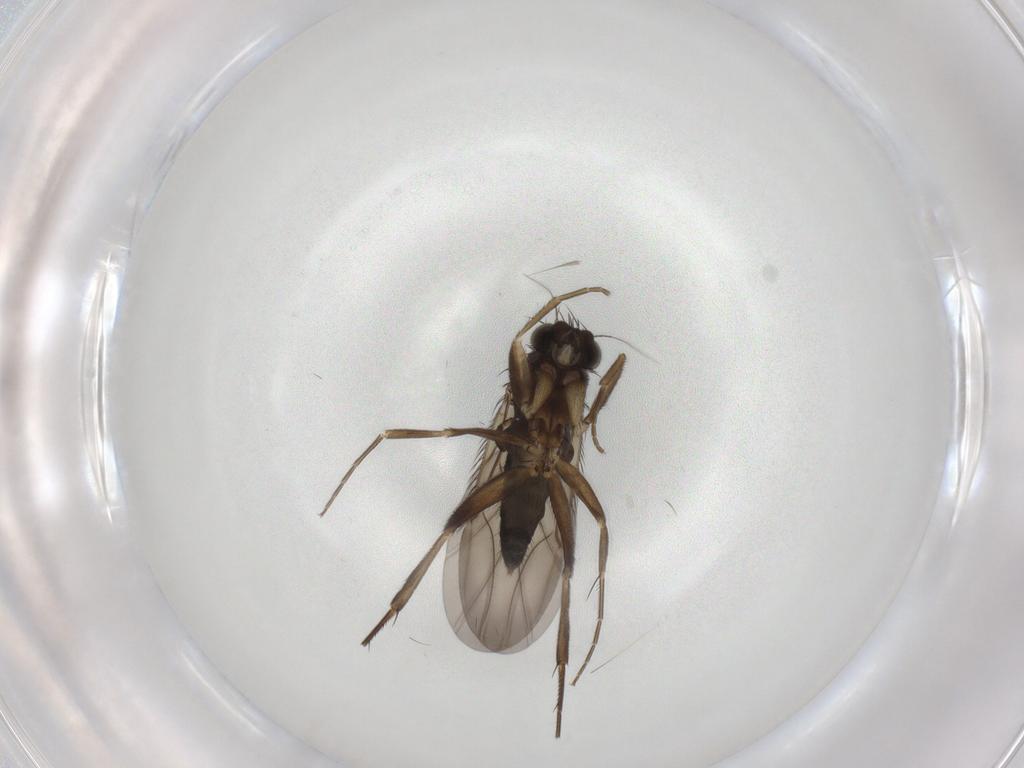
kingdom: Animalia
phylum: Arthropoda
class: Insecta
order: Diptera
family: Phoridae
